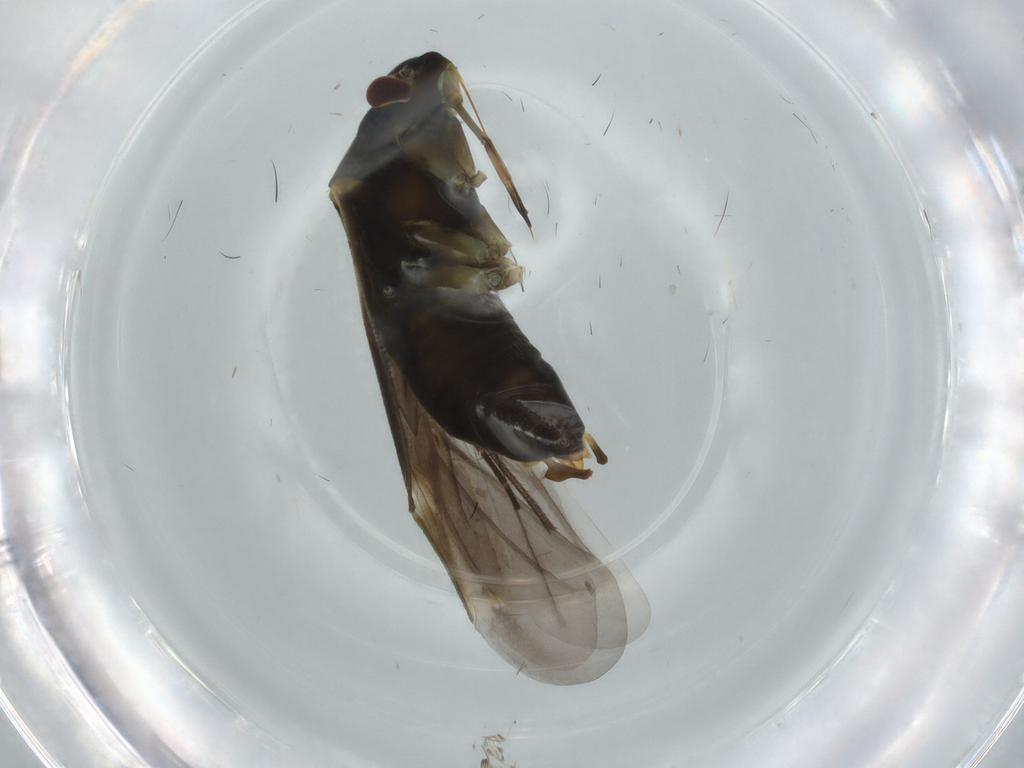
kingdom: Animalia
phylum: Arthropoda
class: Insecta
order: Hemiptera
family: Miridae
